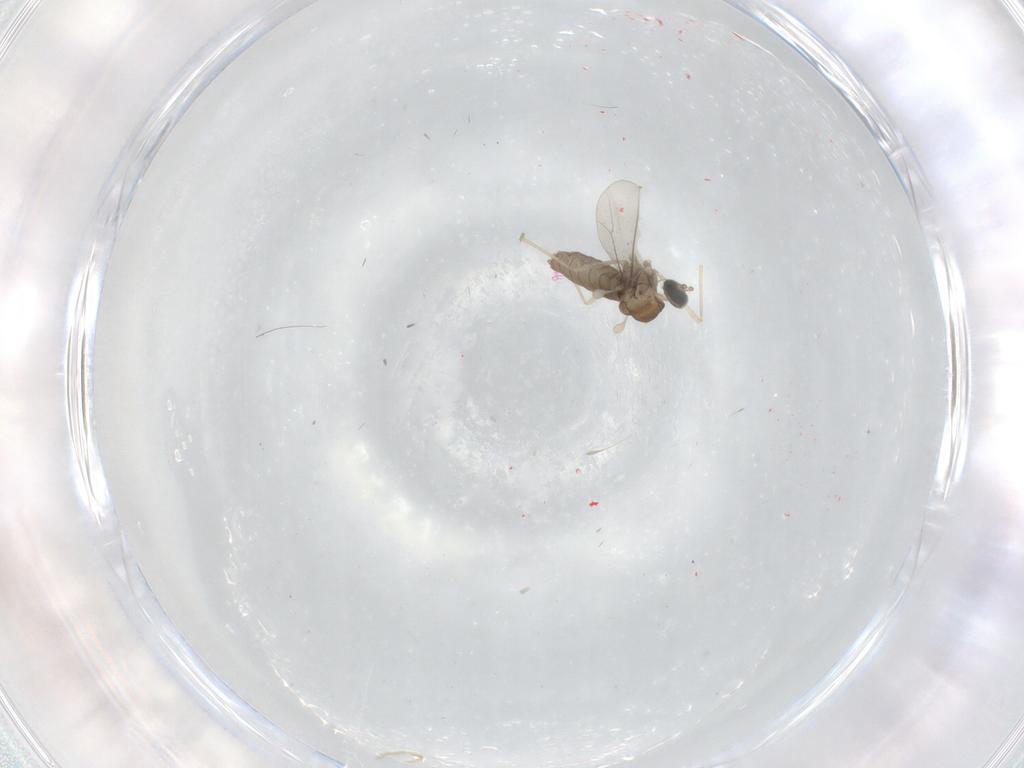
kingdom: Animalia
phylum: Arthropoda
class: Insecta
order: Diptera
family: Cecidomyiidae
